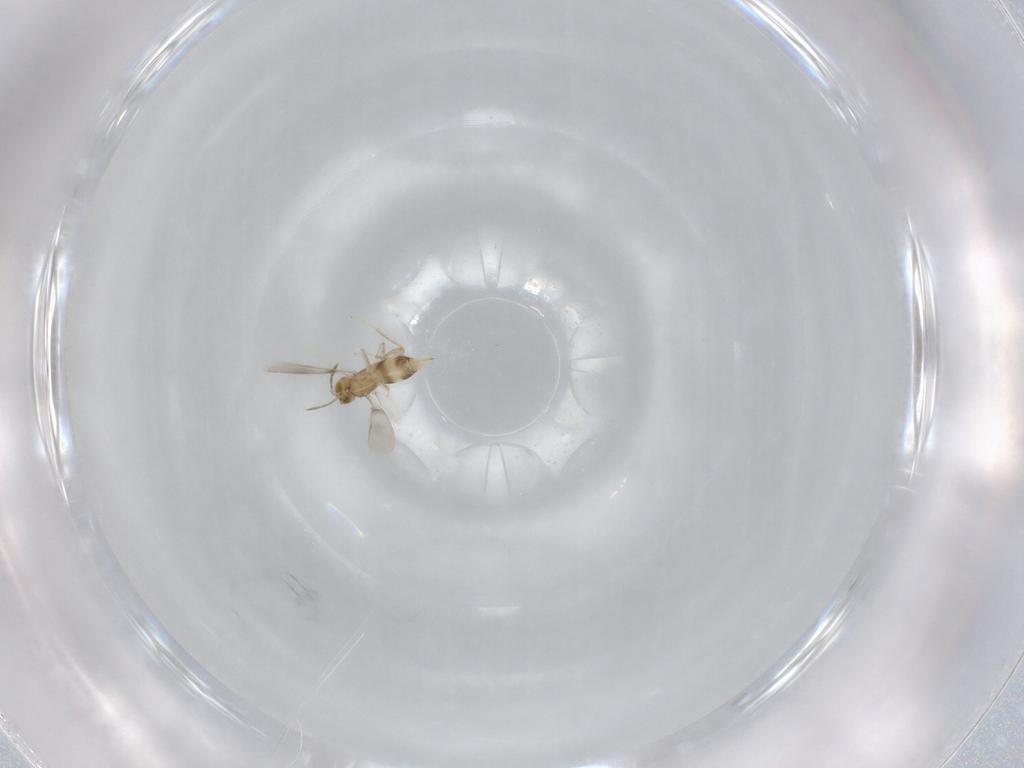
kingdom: Animalia
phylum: Arthropoda
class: Insecta
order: Hymenoptera
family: Aphelinidae
